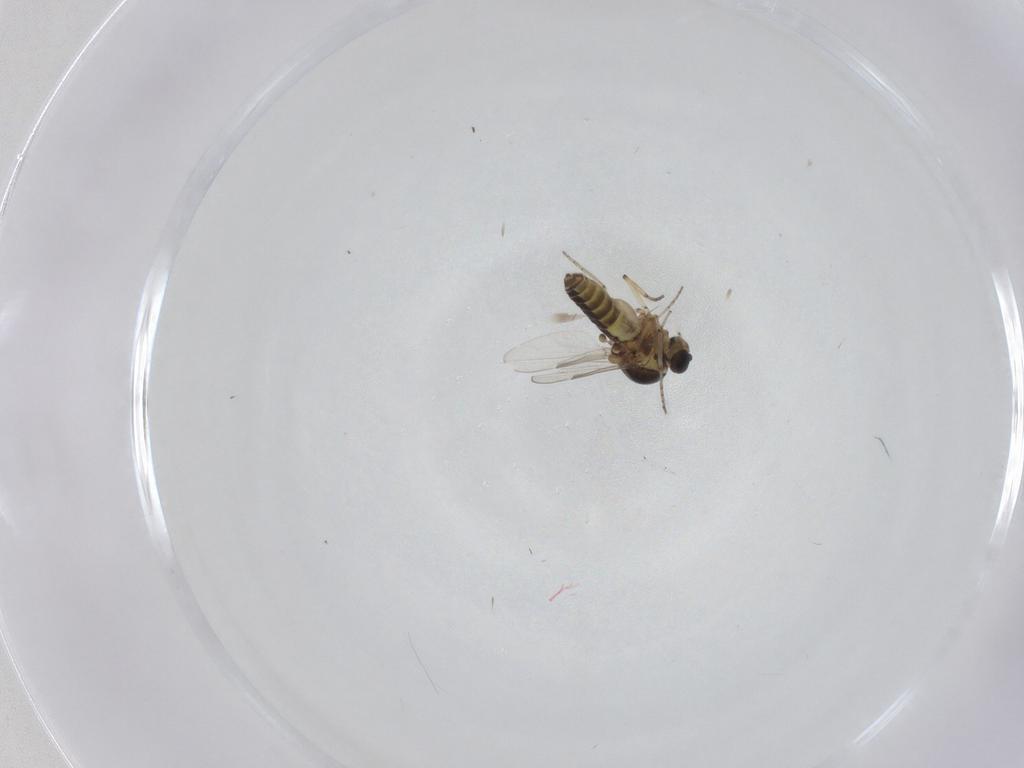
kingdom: Animalia
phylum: Arthropoda
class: Insecta
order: Diptera
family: Ceratopogonidae
